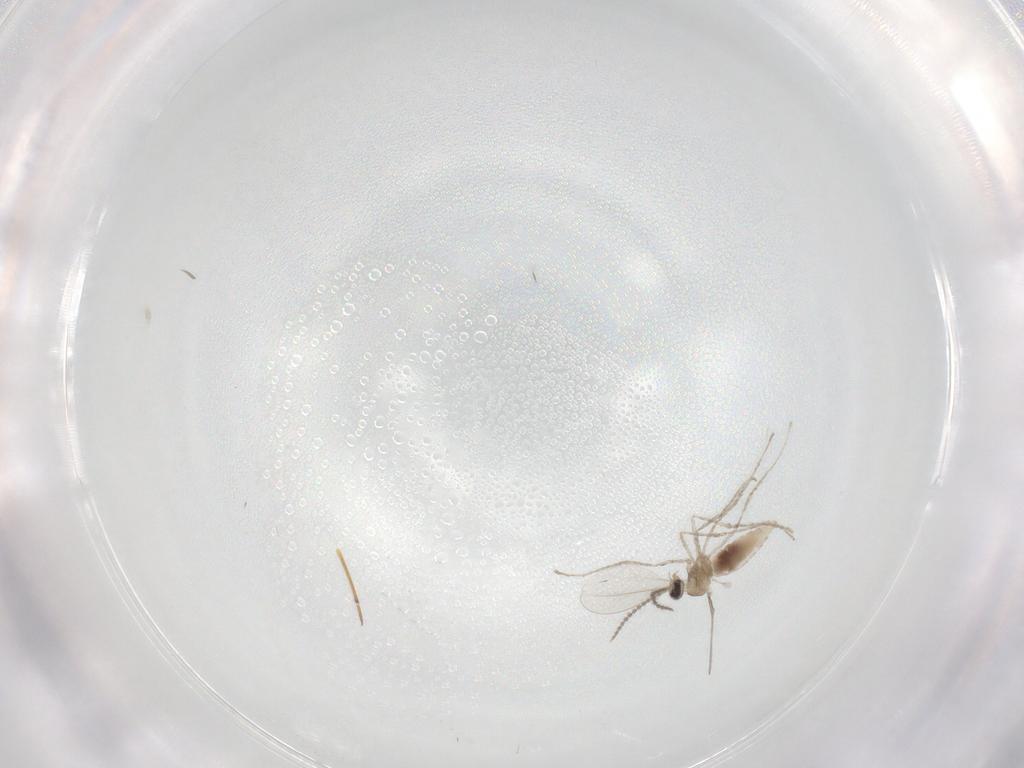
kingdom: Animalia
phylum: Arthropoda
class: Insecta
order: Diptera
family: Cecidomyiidae
